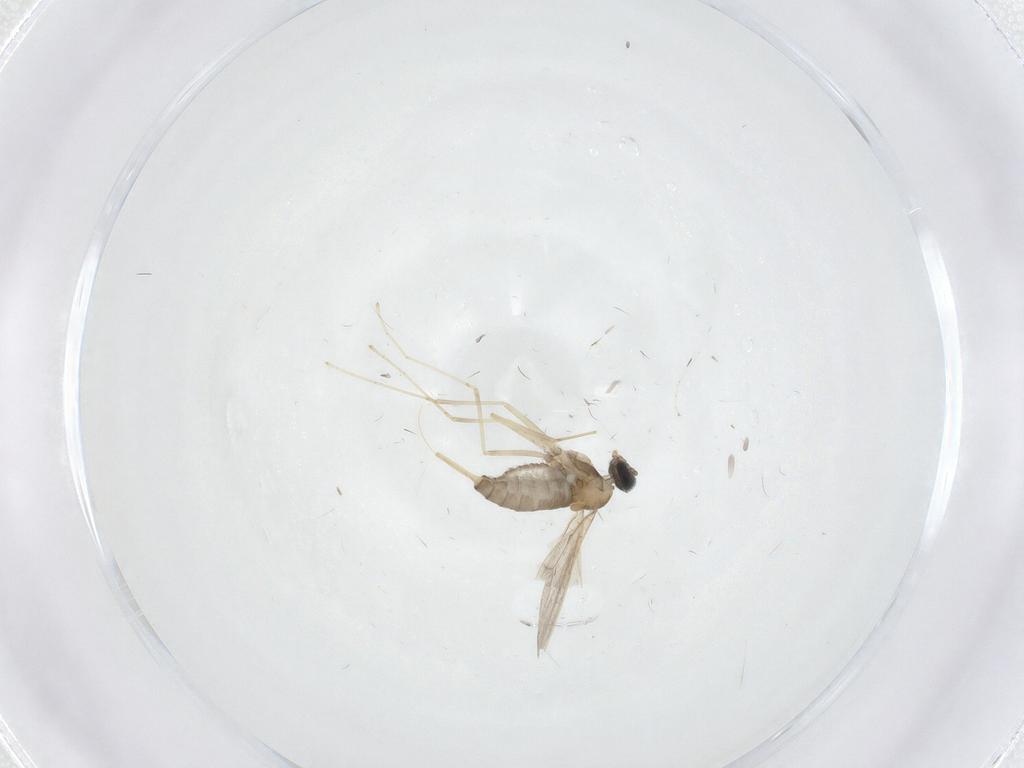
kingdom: Animalia
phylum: Arthropoda
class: Insecta
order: Diptera
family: Cecidomyiidae
